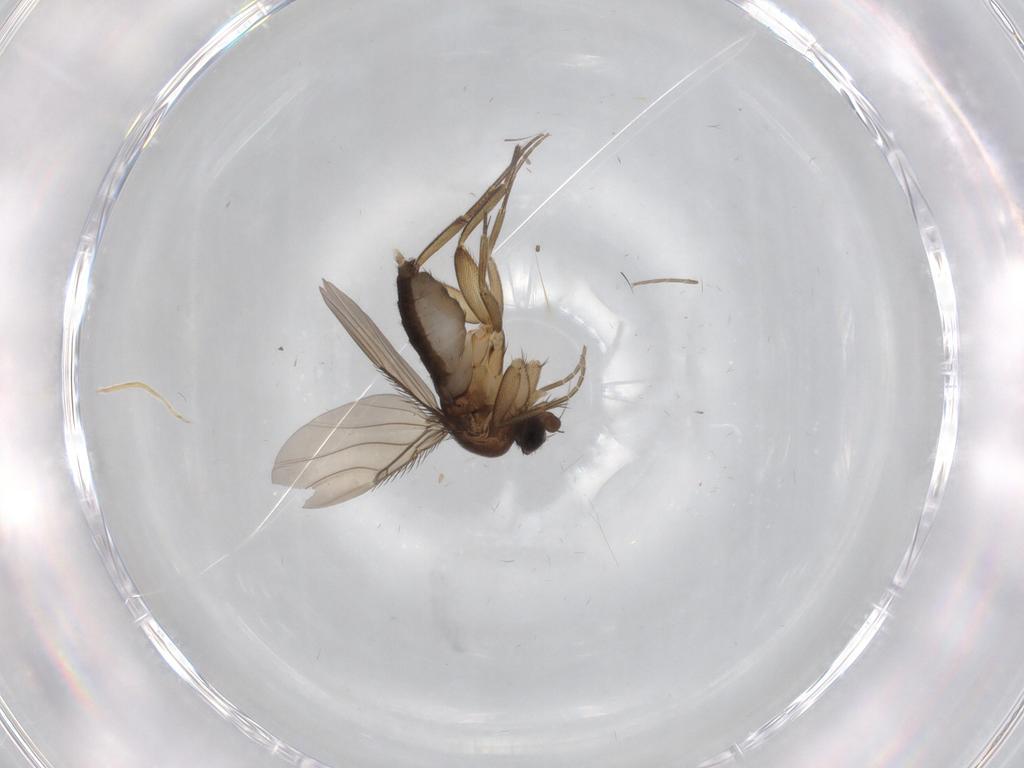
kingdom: Animalia
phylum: Arthropoda
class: Insecta
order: Diptera
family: Phoridae
